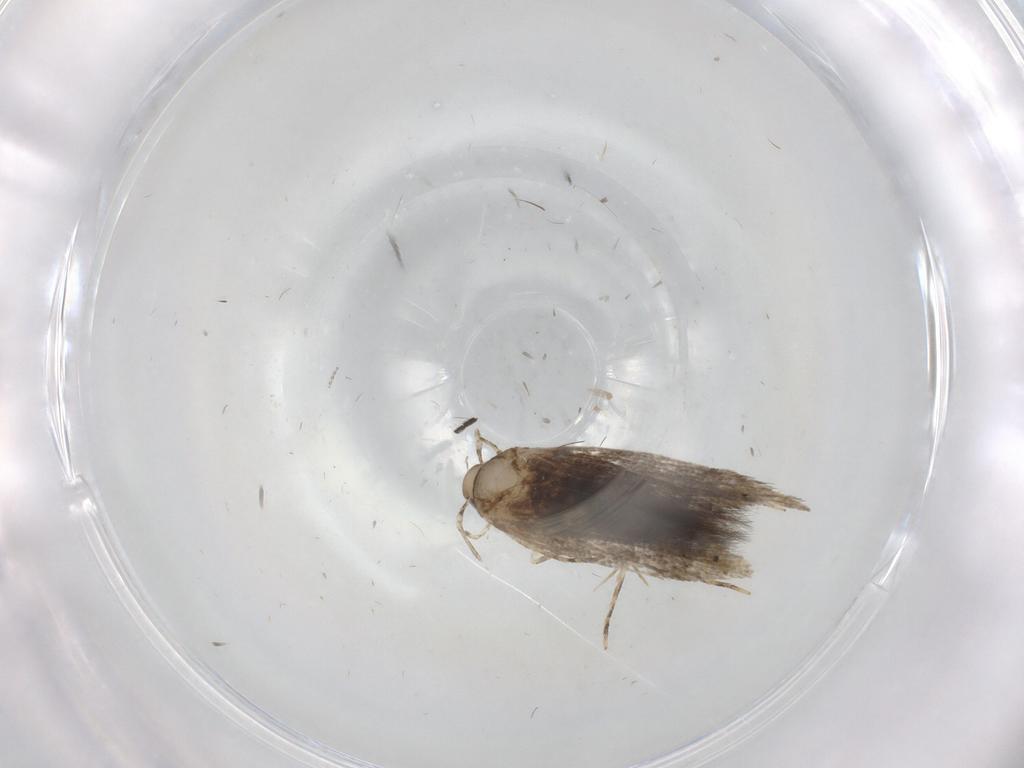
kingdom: Animalia
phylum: Arthropoda
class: Insecta
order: Lepidoptera
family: Cosmopterigidae
